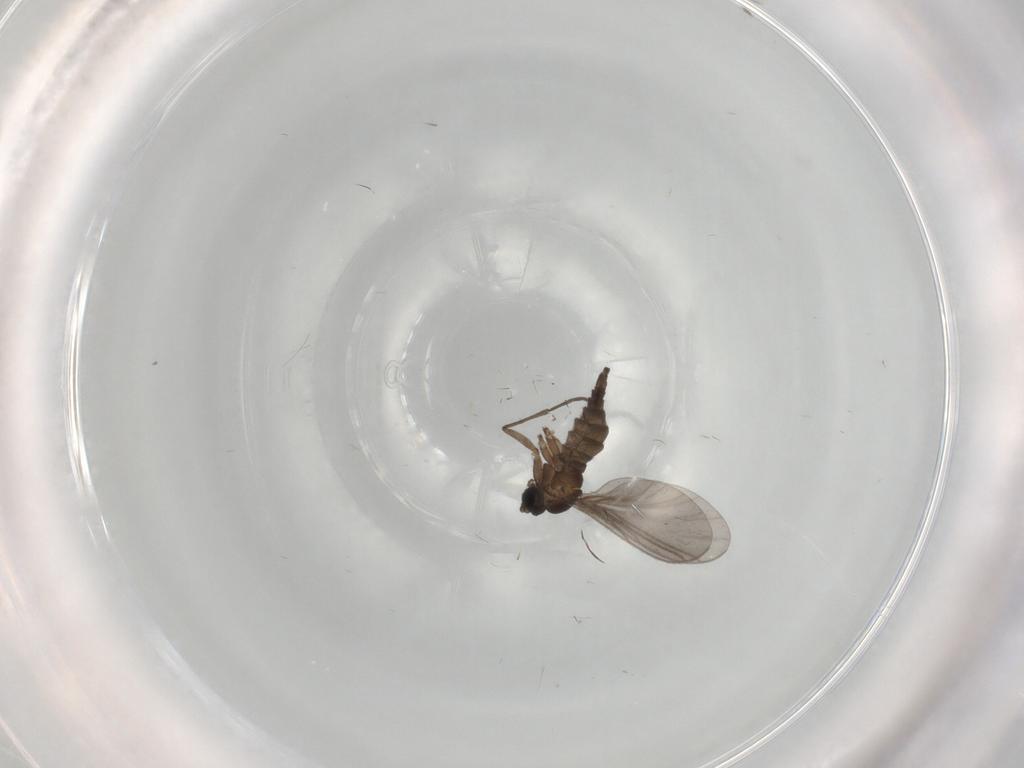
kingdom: Animalia
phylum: Arthropoda
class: Insecta
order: Diptera
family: Sciaridae
